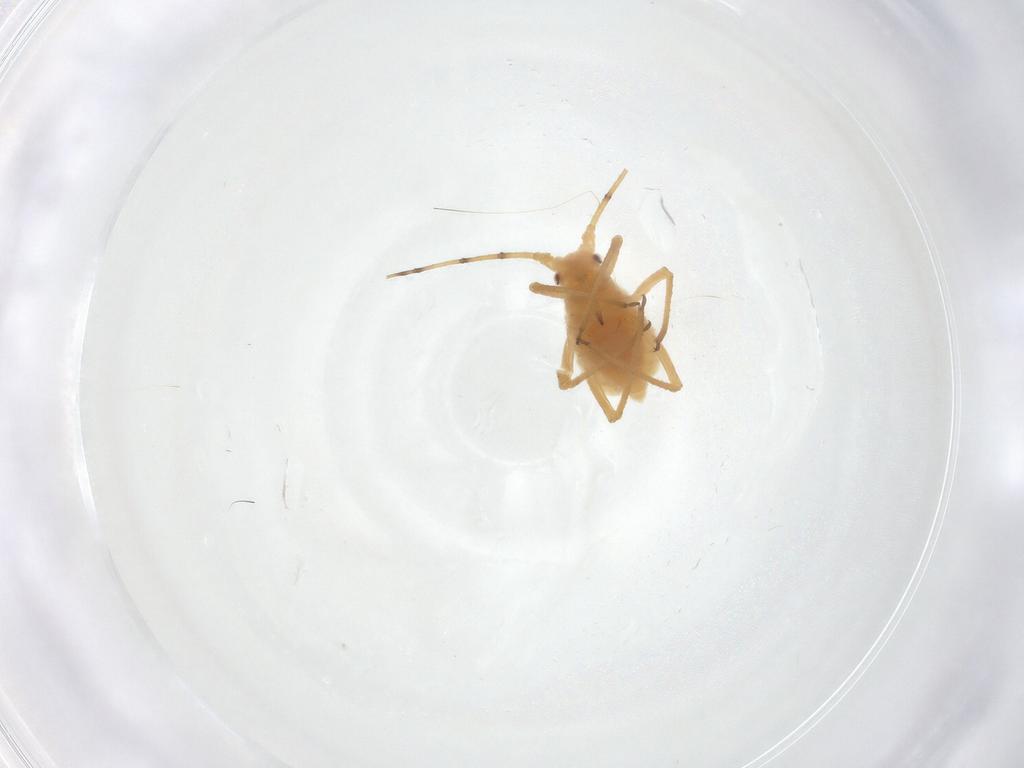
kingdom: Animalia
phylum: Arthropoda
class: Insecta
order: Hemiptera
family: Aphididae
